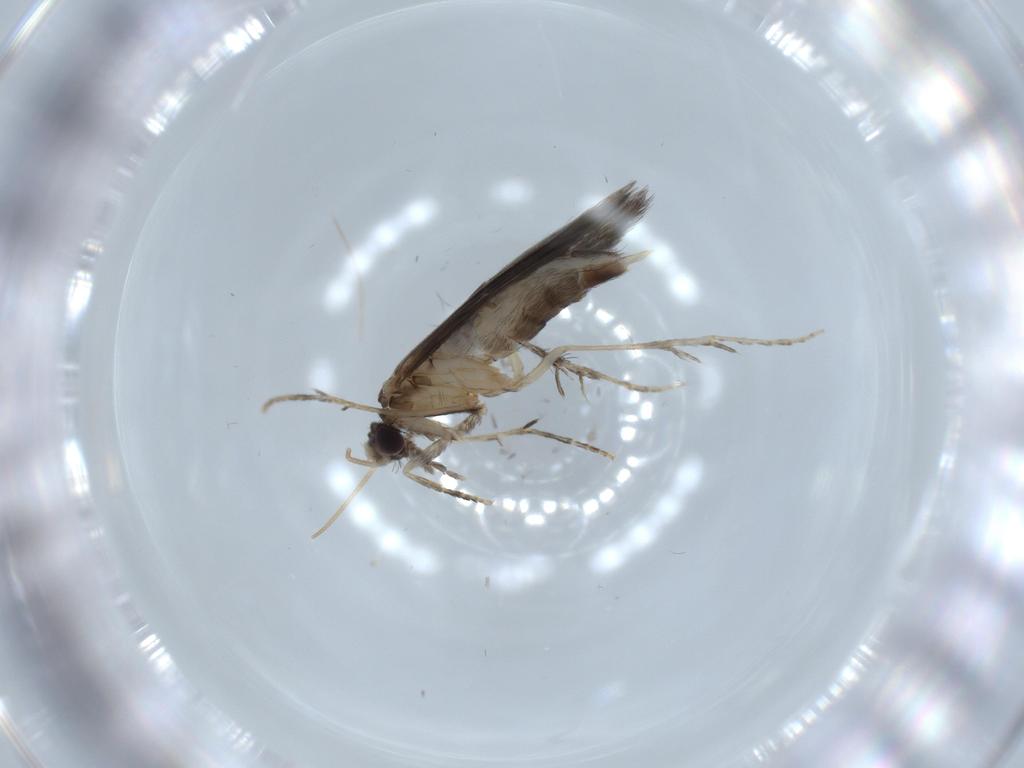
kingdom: Animalia
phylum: Arthropoda
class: Insecta
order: Trichoptera
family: Hydroptilidae
